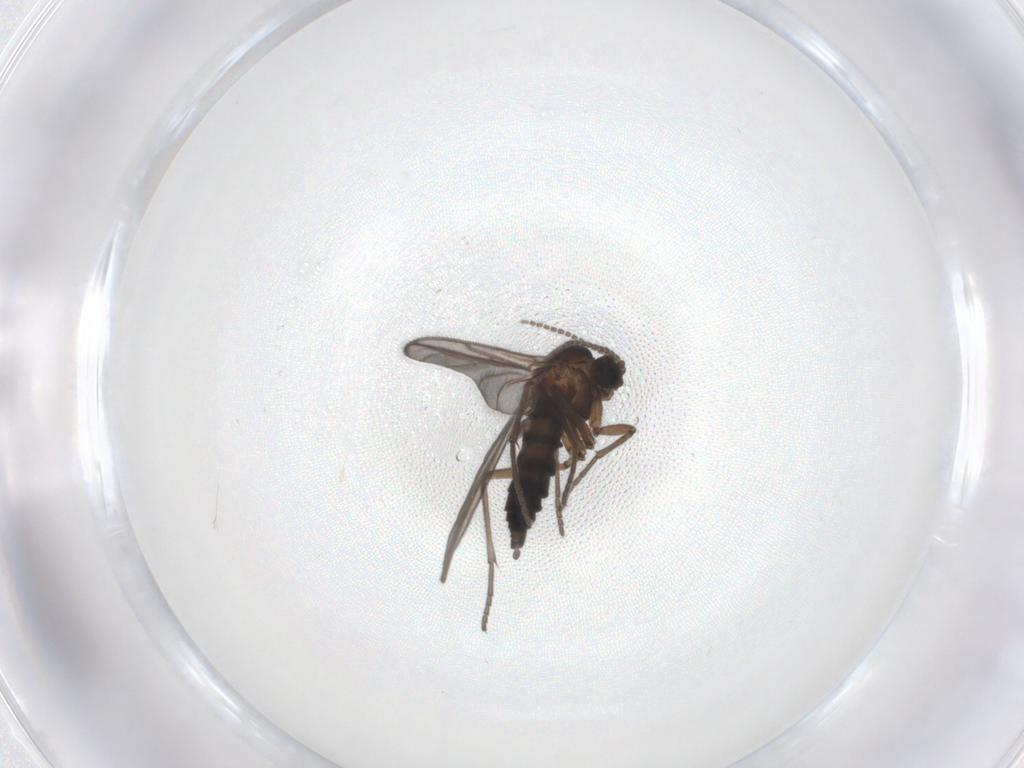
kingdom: Animalia
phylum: Arthropoda
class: Insecta
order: Diptera
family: Sciaridae
